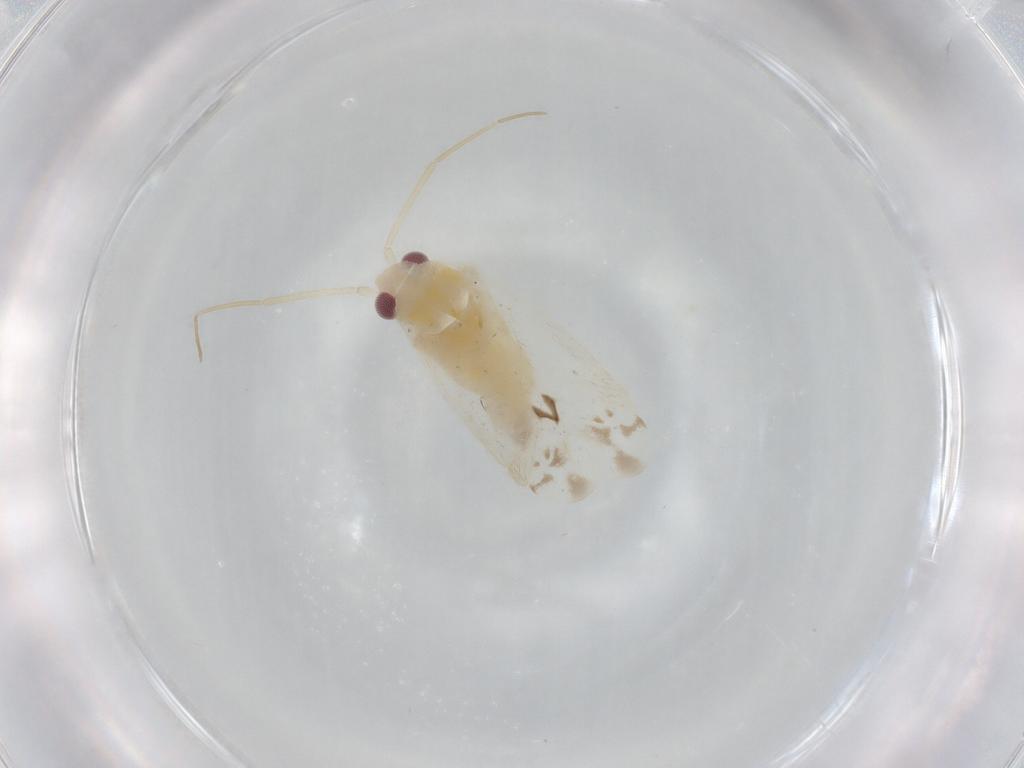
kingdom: Animalia
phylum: Arthropoda
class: Insecta
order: Hemiptera
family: Miridae
